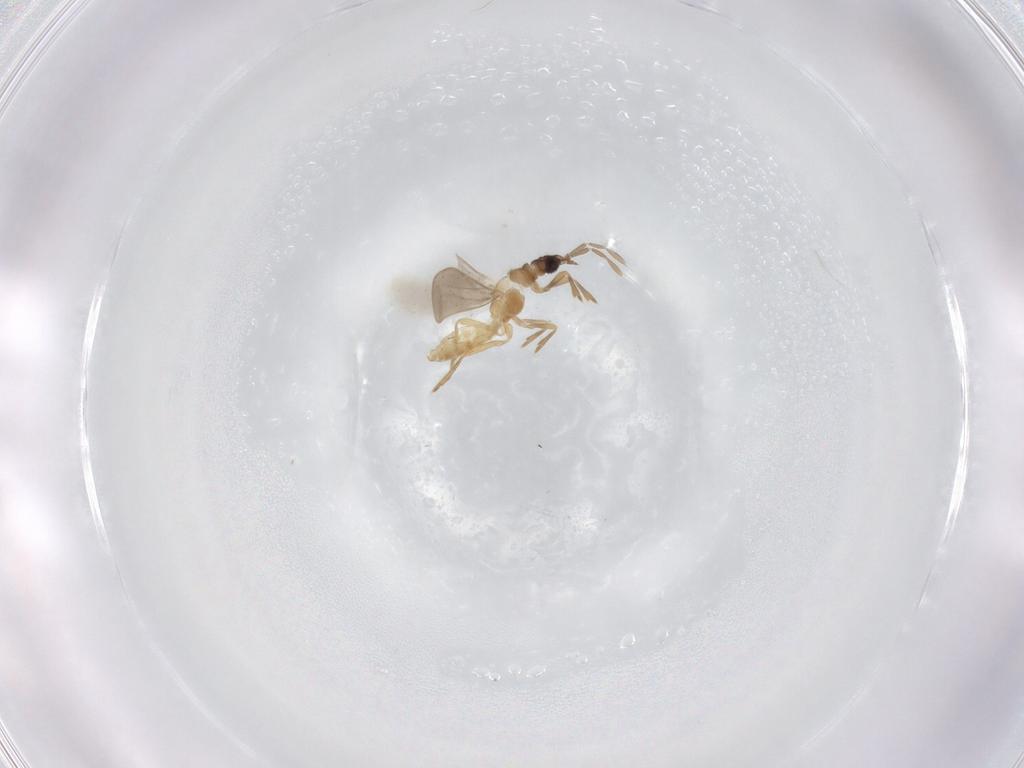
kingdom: Animalia
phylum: Arthropoda
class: Insecta
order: Hemiptera
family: Enicocephalidae
